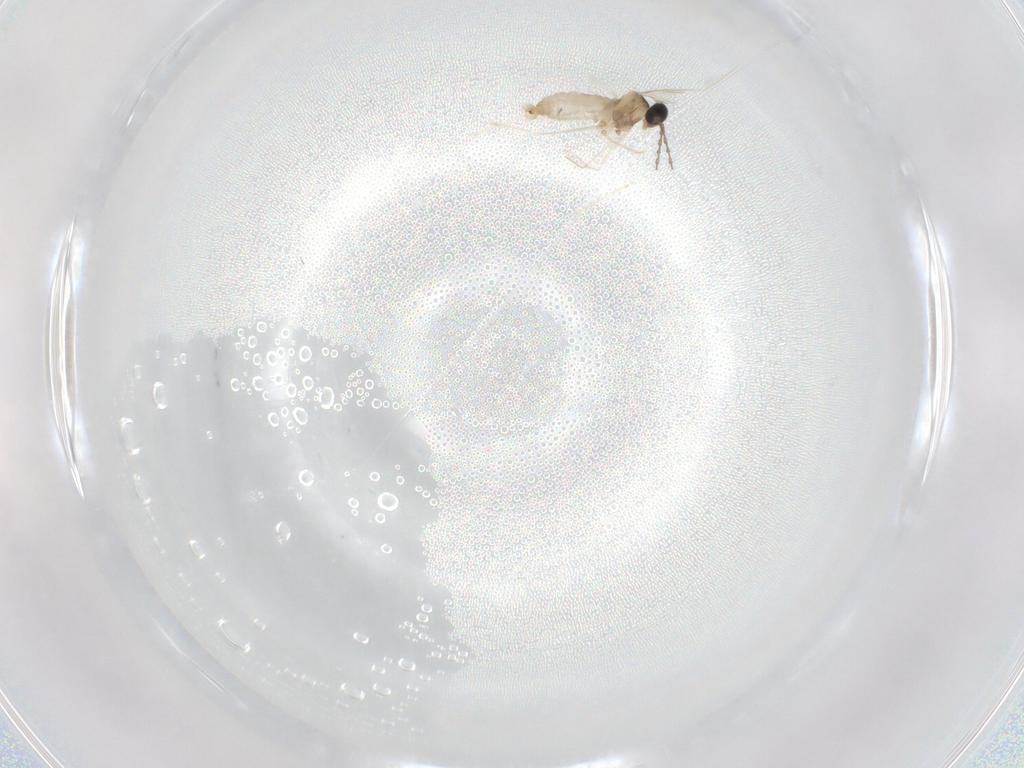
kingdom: Animalia
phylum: Arthropoda
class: Insecta
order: Diptera
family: Cecidomyiidae
